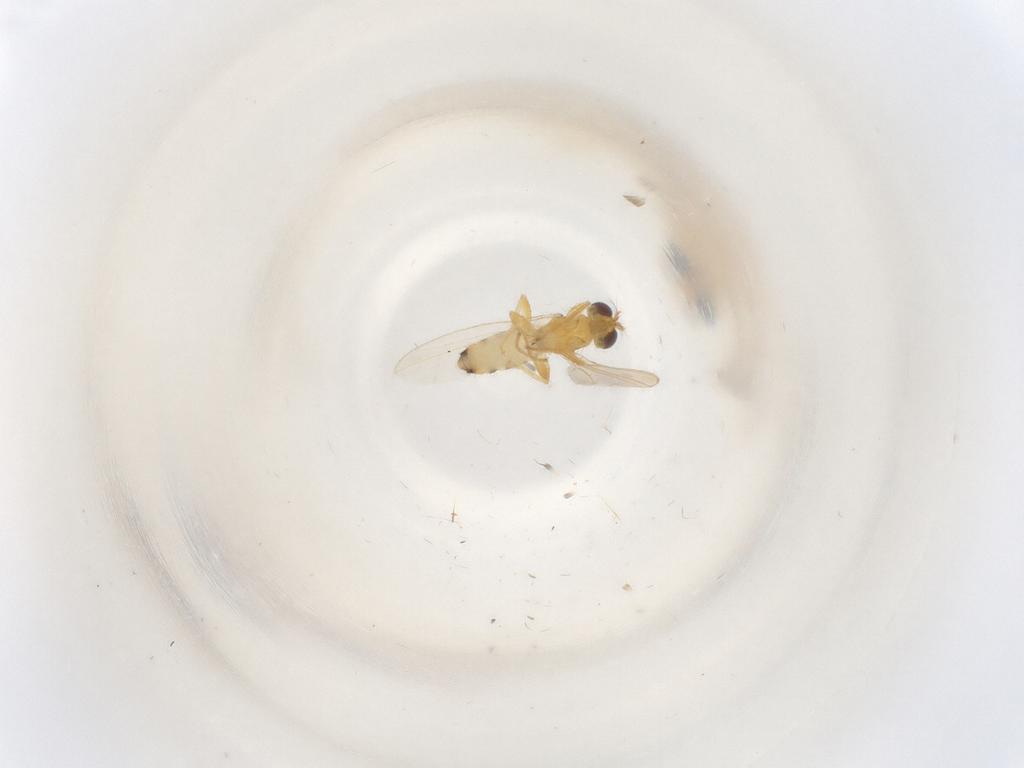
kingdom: Animalia
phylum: Arthropoda
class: Insecta
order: Diptera
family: Periscelididae
